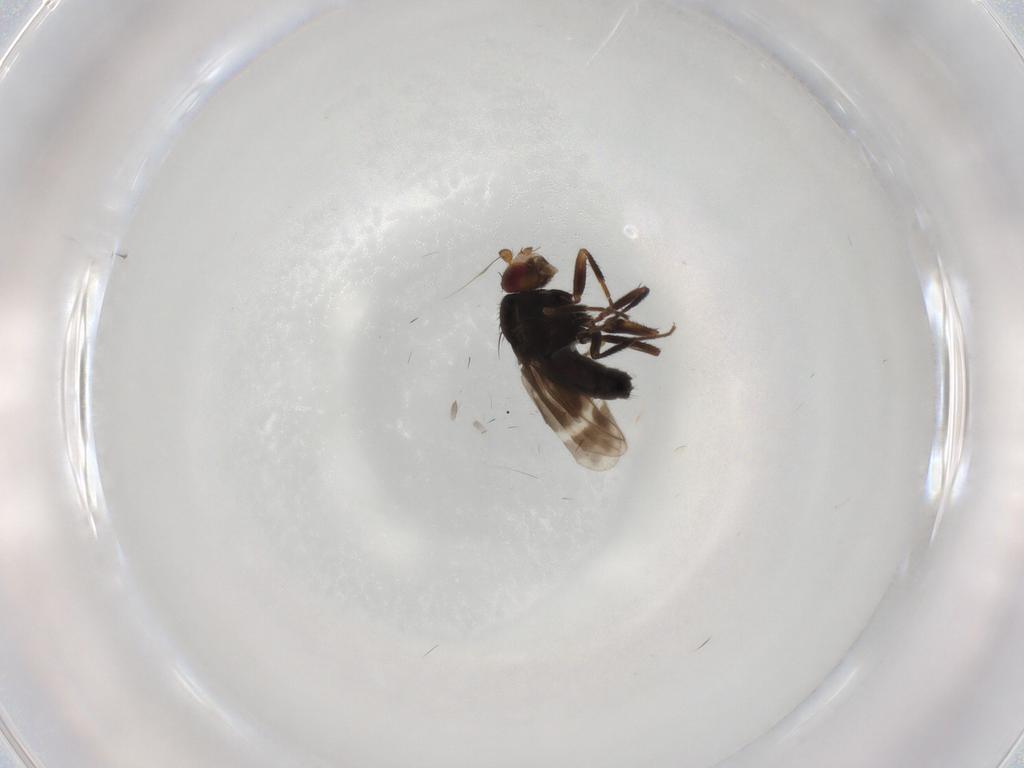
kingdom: Animalia
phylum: Arthropoda
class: Insecta
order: Diptera
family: Sphaeroceridae
